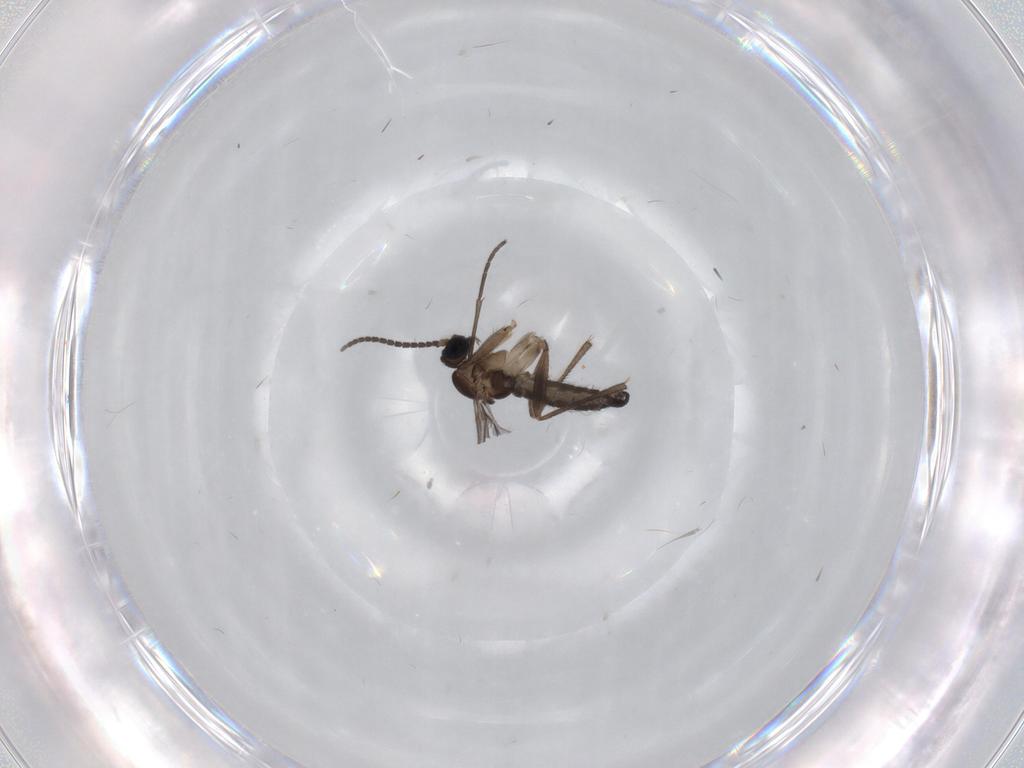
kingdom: Animalia
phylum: Arthropoda
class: Insecta
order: Diptera
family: Sciaridae
